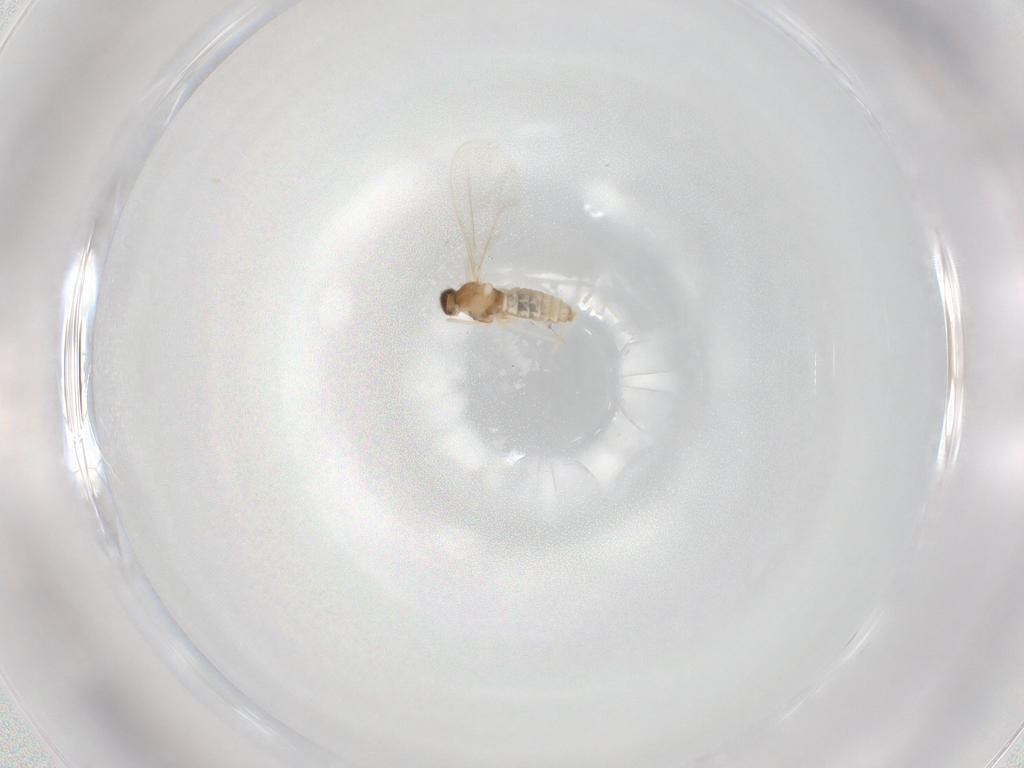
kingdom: Animalia
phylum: Arthropoda
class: Insecta
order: Diptera
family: Cecidomyiidae
